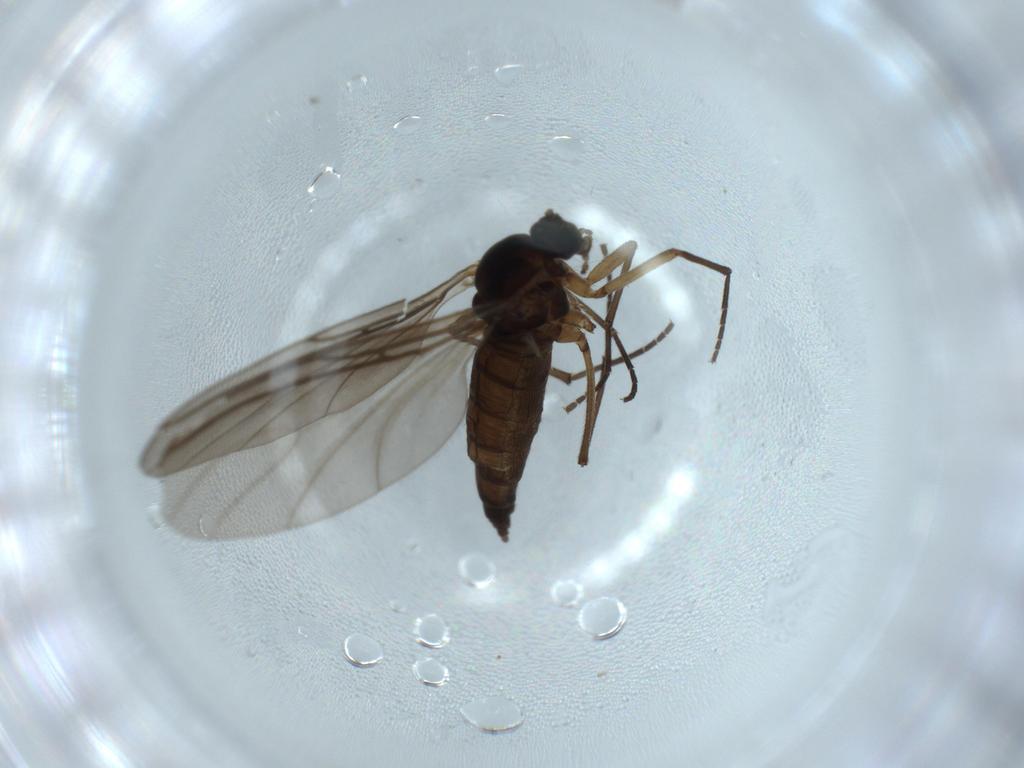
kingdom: Animalia
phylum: Arthropoda
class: Insecta
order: Diptera
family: Sciaridae
